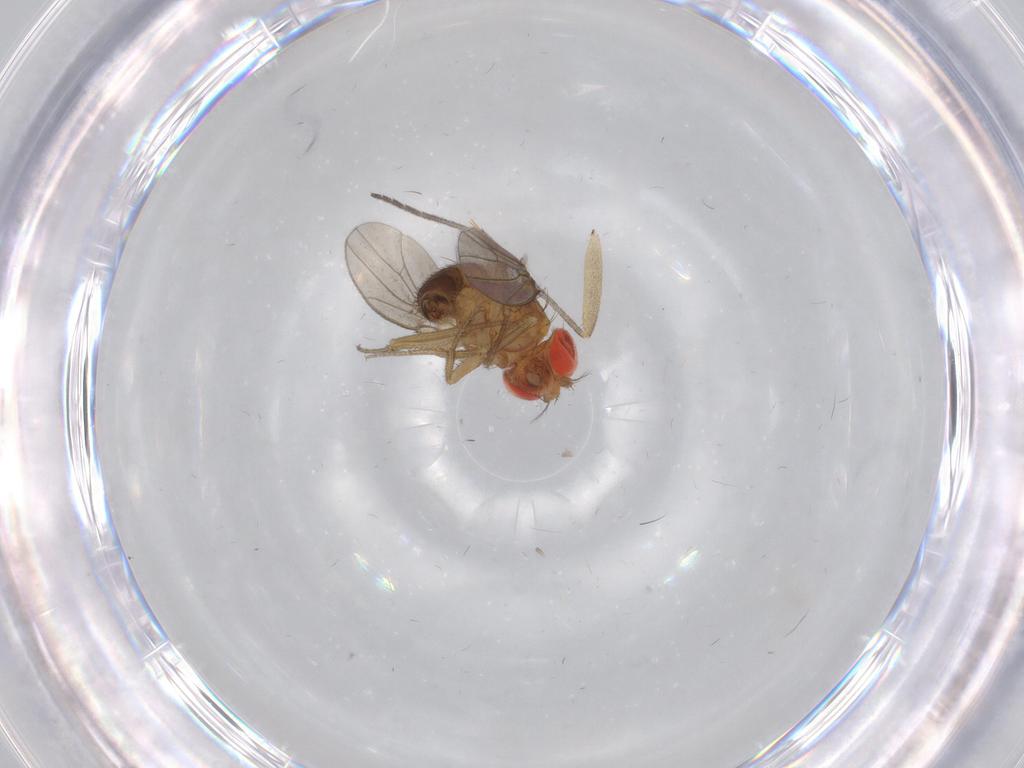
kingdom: Animalia
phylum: Arthropoda
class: Insecta
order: Diptera
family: Drosophilidae
